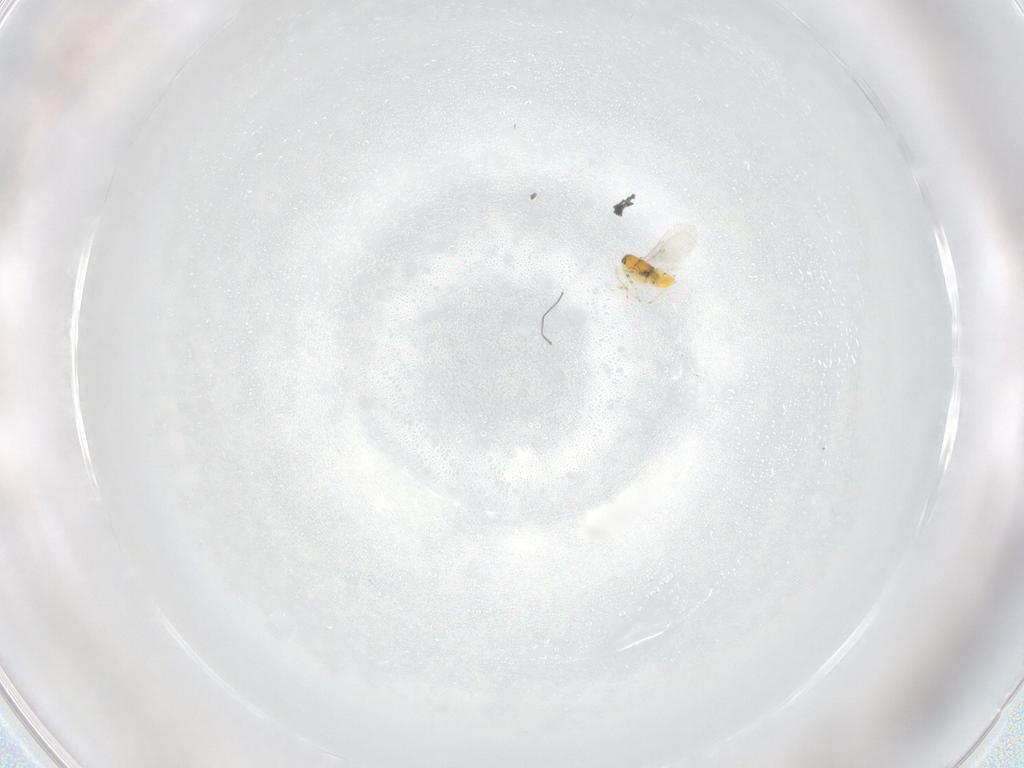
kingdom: Animalia
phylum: Arthropoda
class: Insecta
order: Hymenoptera
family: Encyrtidae
